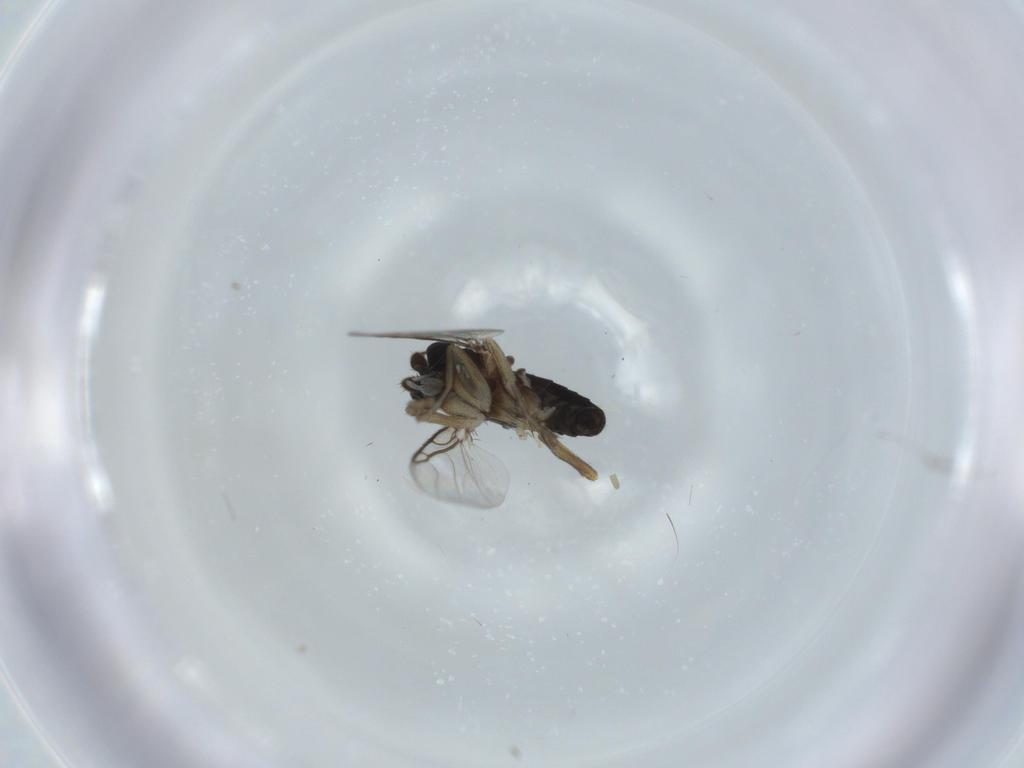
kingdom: Animalia
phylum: Arthropoda
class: Insecta
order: Diptera
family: Phoridae
